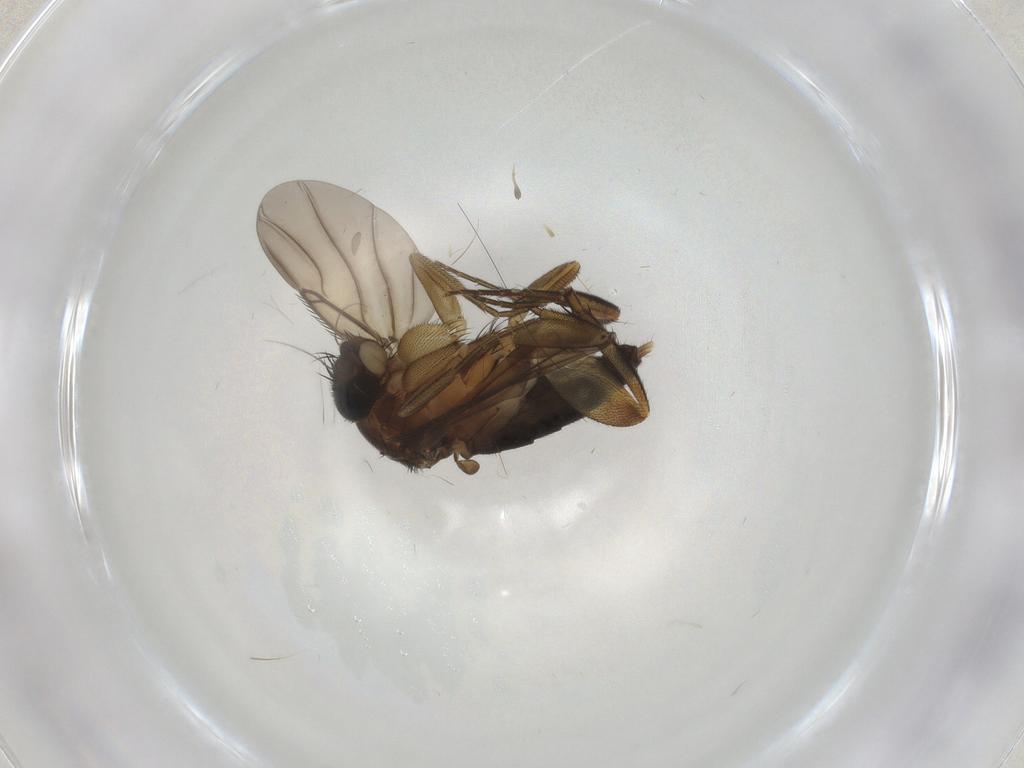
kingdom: Animalia
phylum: Arthropoda
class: Insecta
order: Diptera
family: Phoridae
